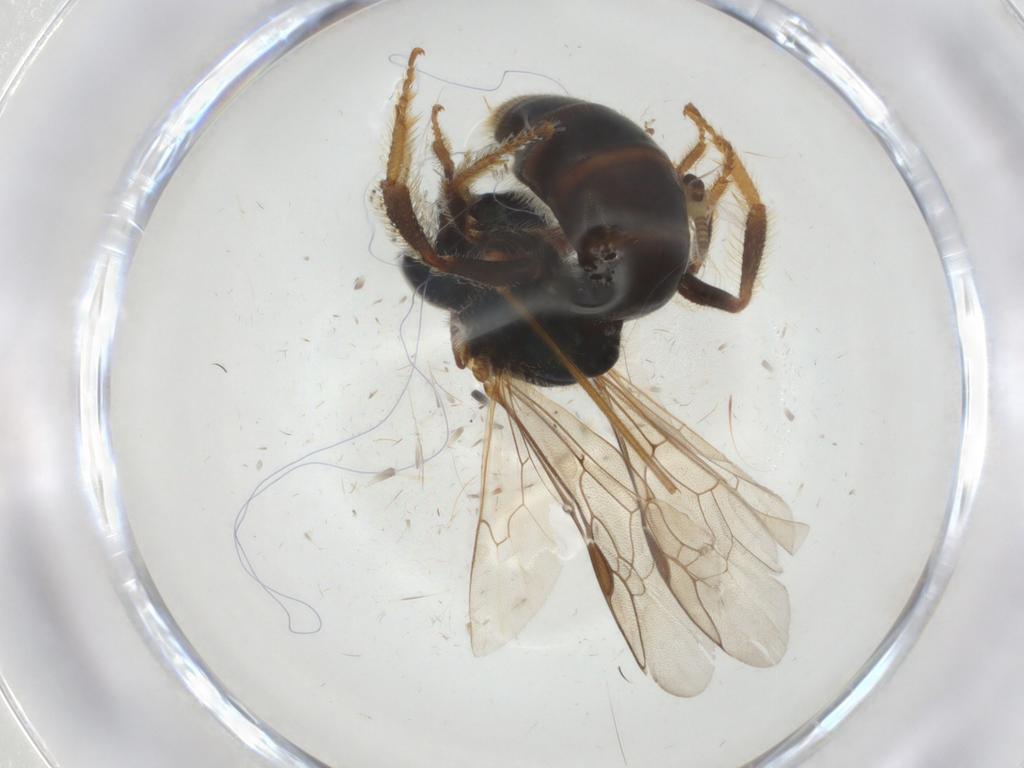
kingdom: Animalia
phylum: Arthropoda
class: Insecta
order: Hymenoptera
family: Halictidae
